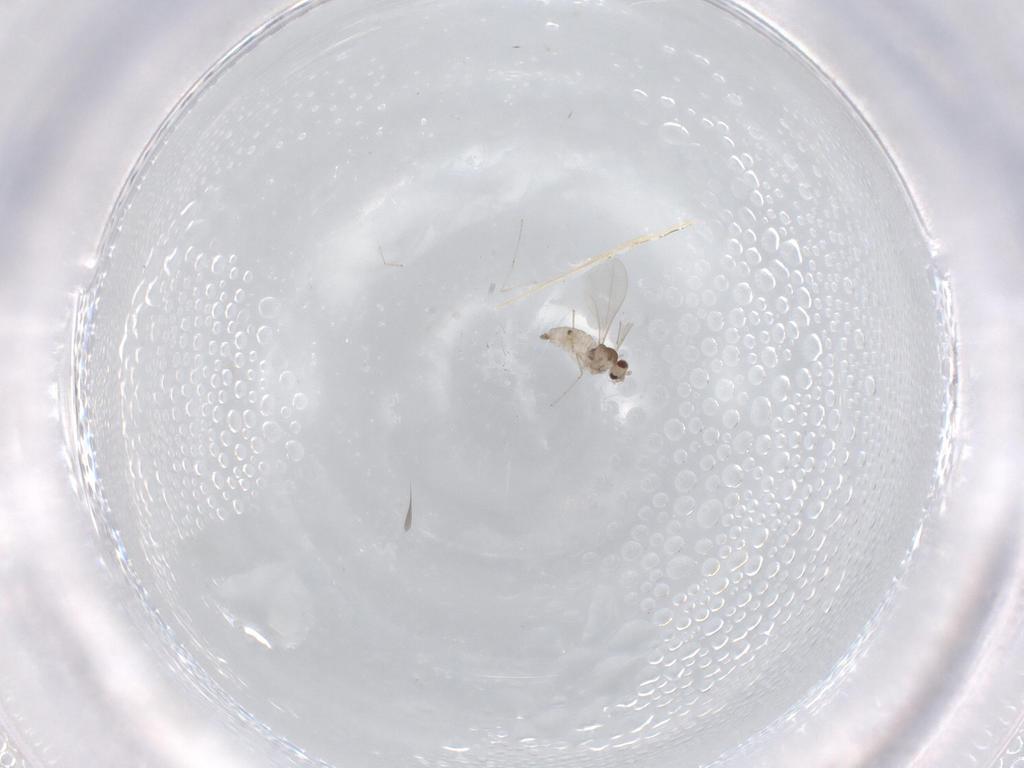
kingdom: Animalia
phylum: Arthropoda
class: Insecta
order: Diptera
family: Cecidomyiidae
